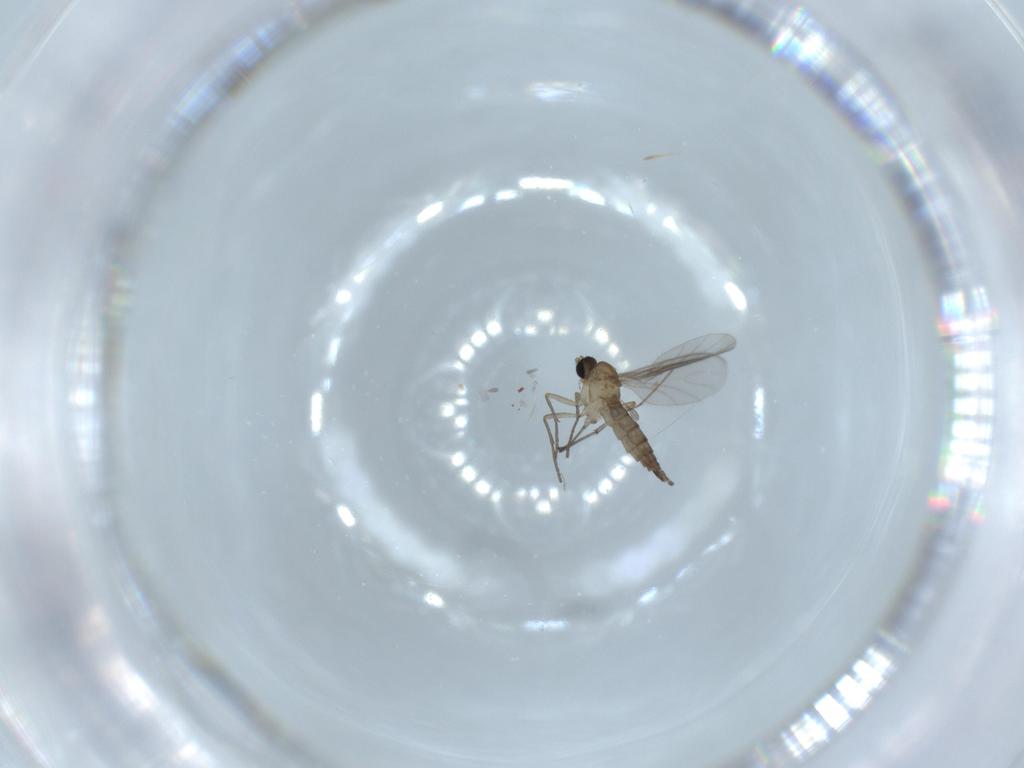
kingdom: Animalia
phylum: Arthropoda
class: Insecta
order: Diptera
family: Sciaridae
